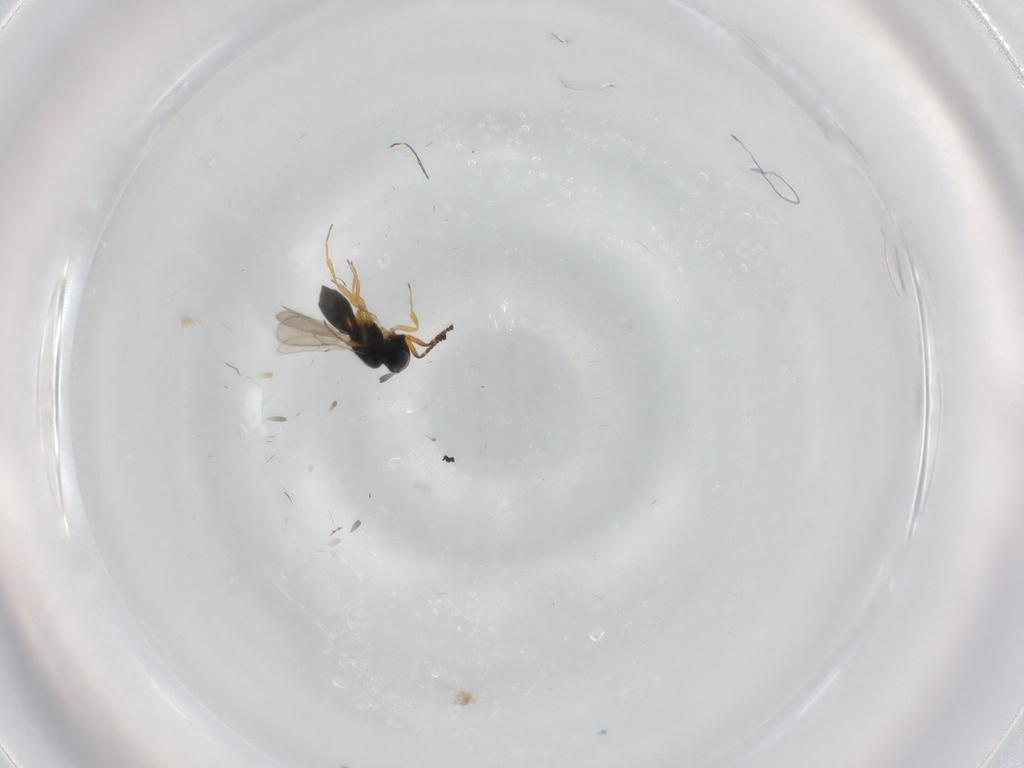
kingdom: Animalia
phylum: Arthropoda
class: Insecta
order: Hymenoptera
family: Scelionidae
